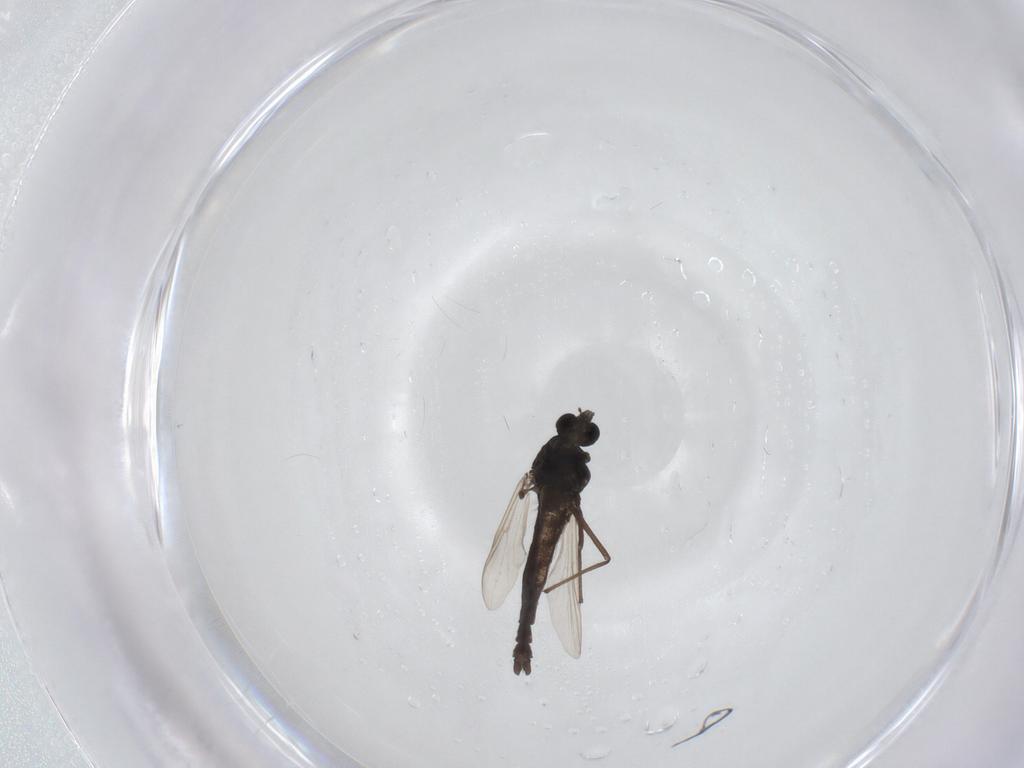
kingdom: Animalia
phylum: Arthropoda
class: Insecta
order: Diptera
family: Chironomidae
